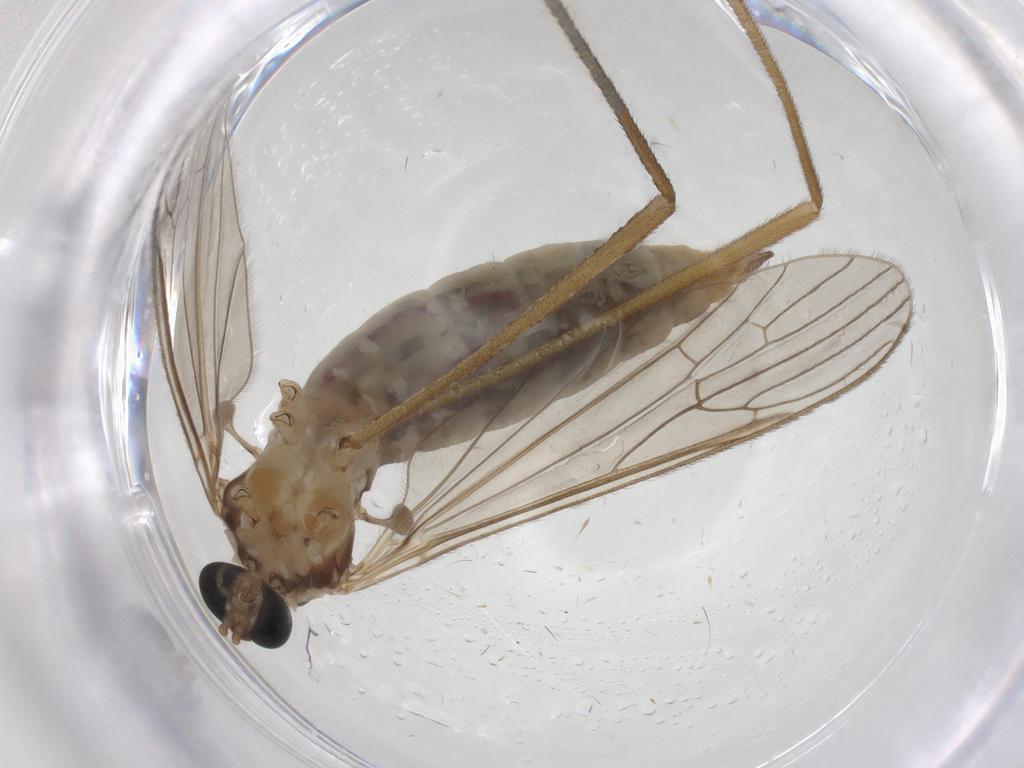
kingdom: Animalia
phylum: Arthropoda
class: Insecta
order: Diptera
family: Limoniidae
